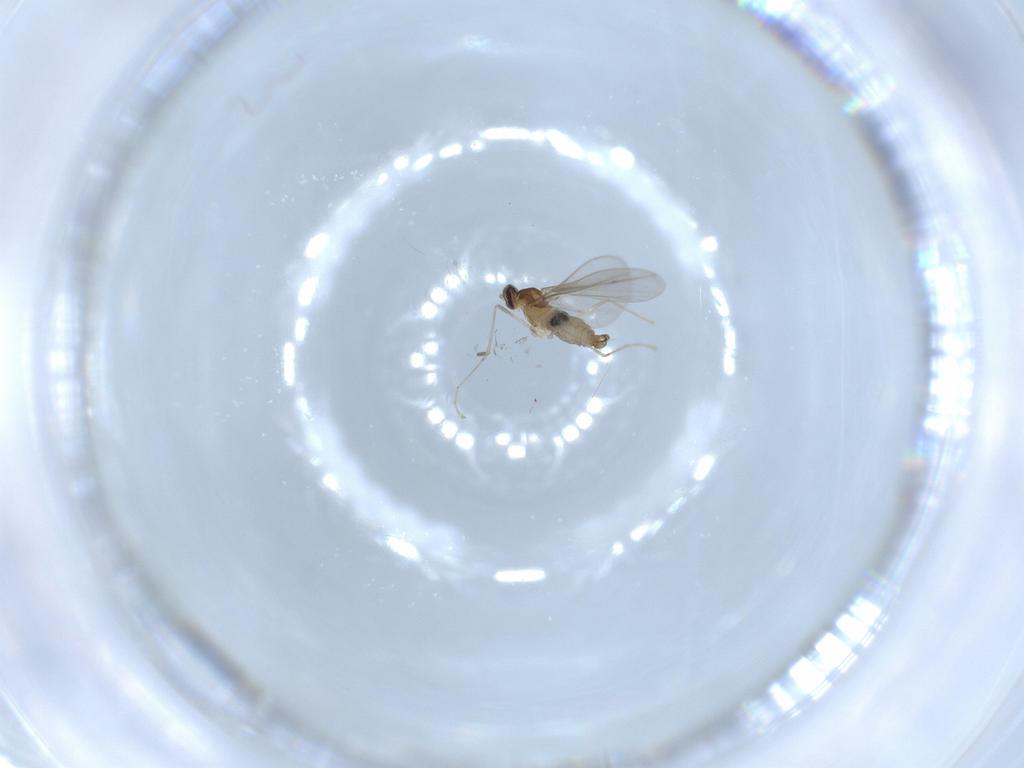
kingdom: Animalia
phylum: Arthropoda
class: Insecta
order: Diptera
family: Cecidomyiidae
